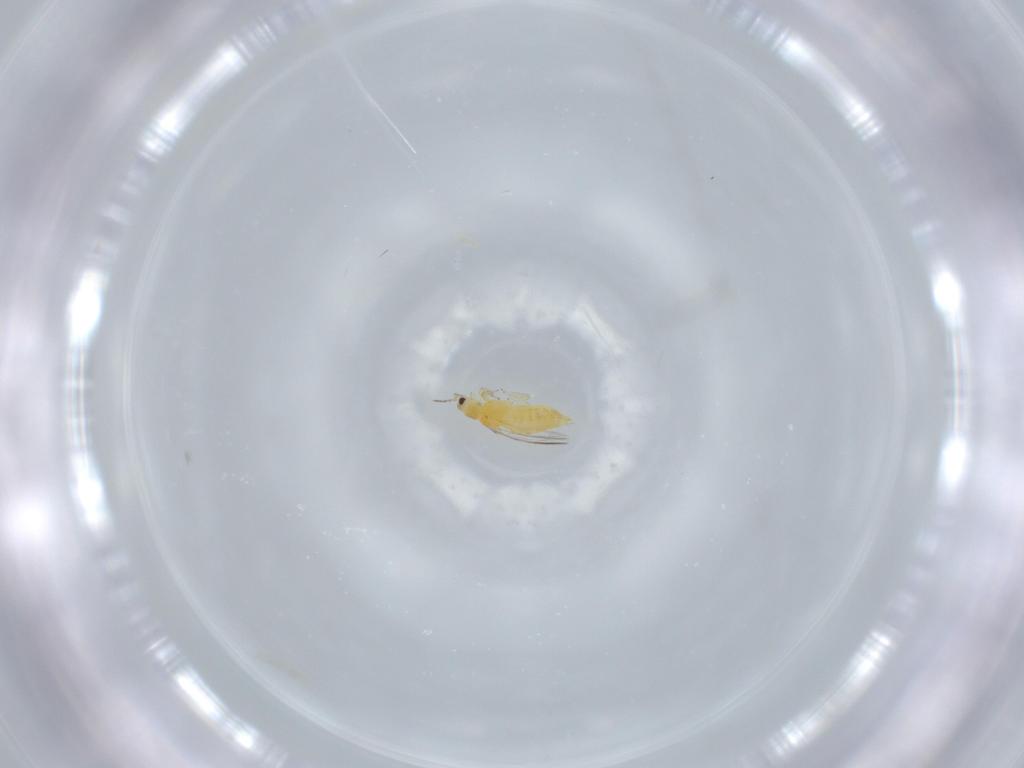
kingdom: Animalia
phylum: Arthropoda
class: Insecta
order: Thysanoptera
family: Thripidae
